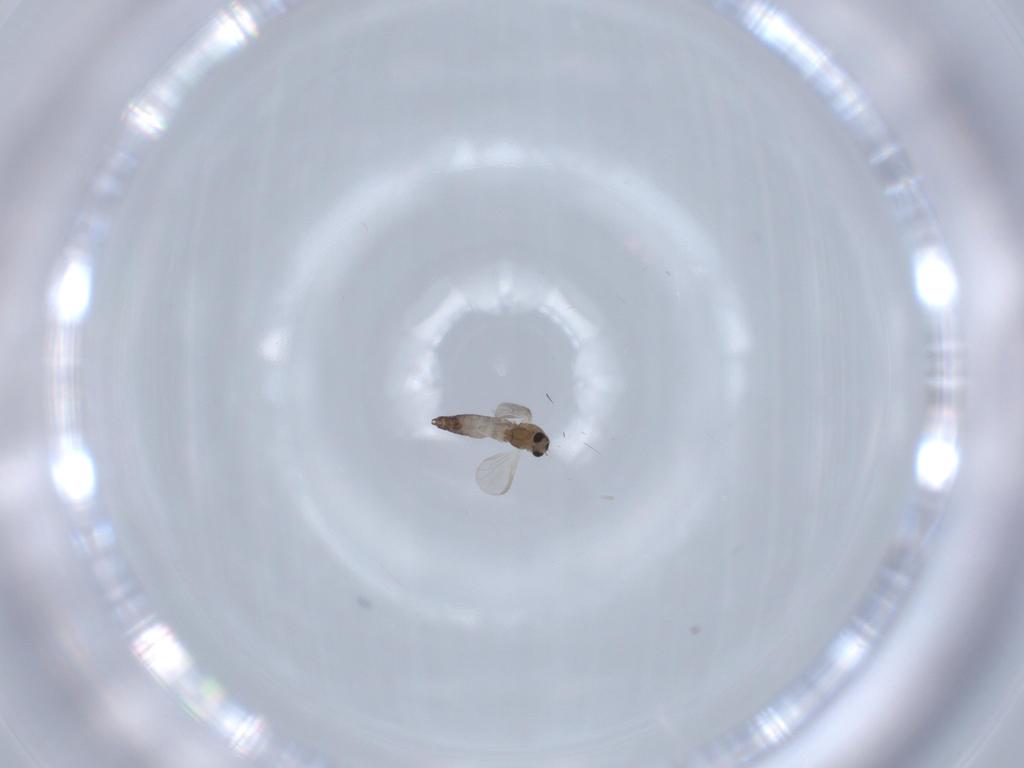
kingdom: Animalia
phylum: Arthropoda
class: Insecta
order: Diptera
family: Chironomidae
